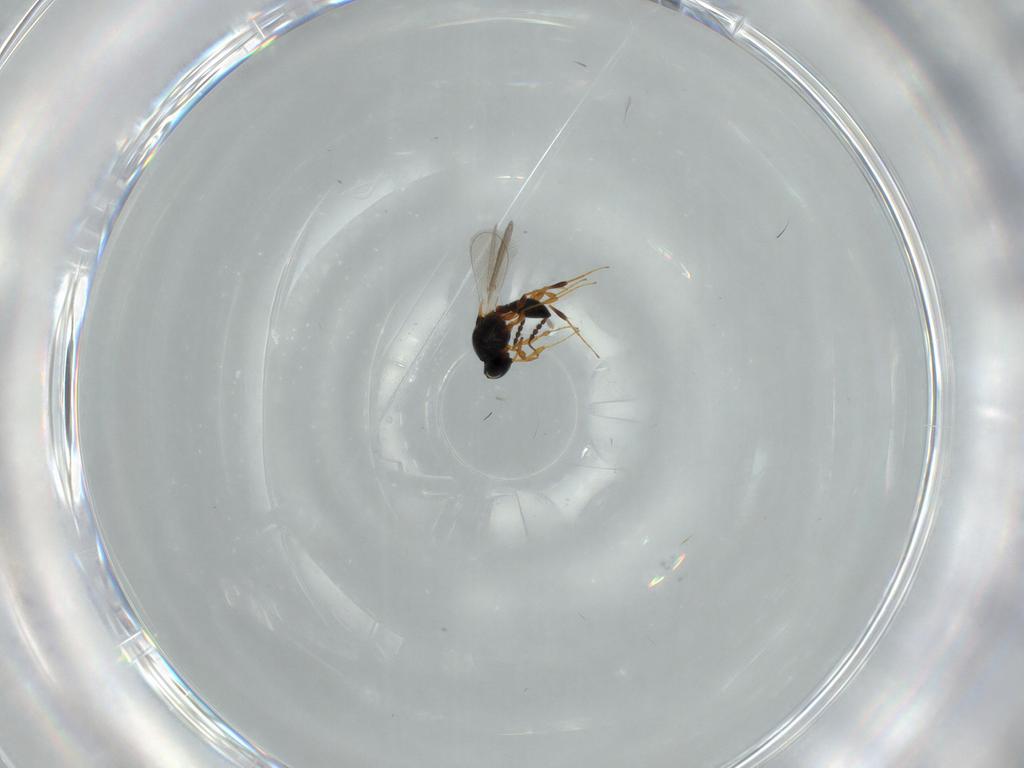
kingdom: Animalia
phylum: Arthropoda
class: Insecta
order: Hymenoptera
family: Platygastridae
